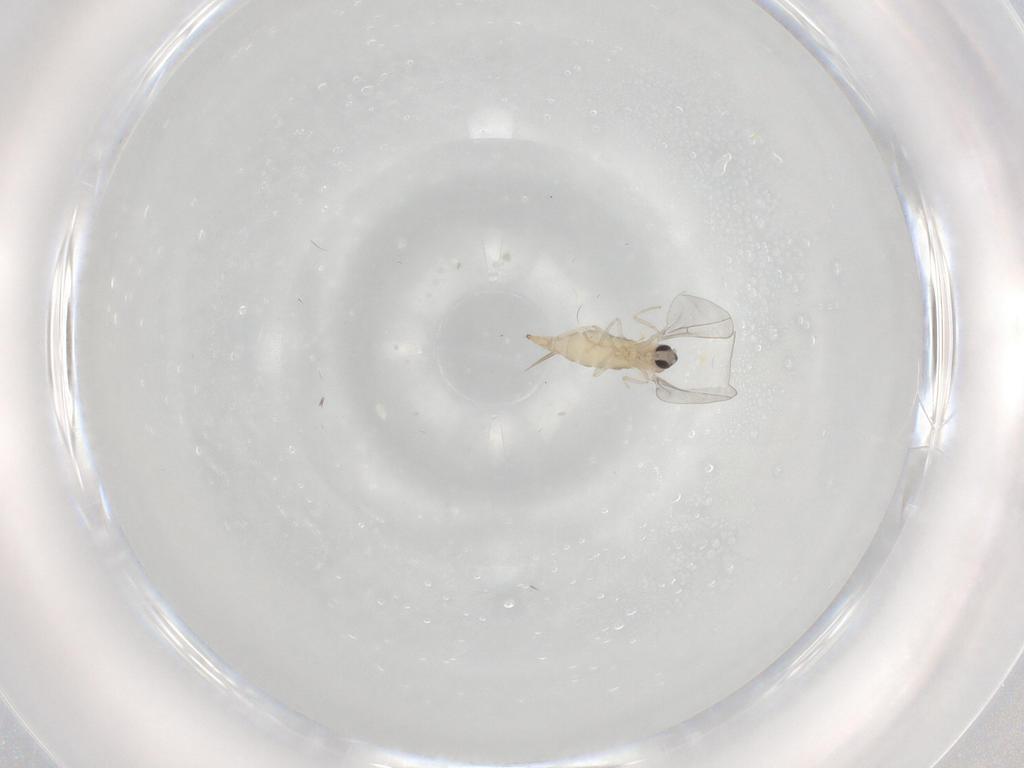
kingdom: Animalia
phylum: Arthropoda
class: Insecta
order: Diptera
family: Cecidomyiidae
